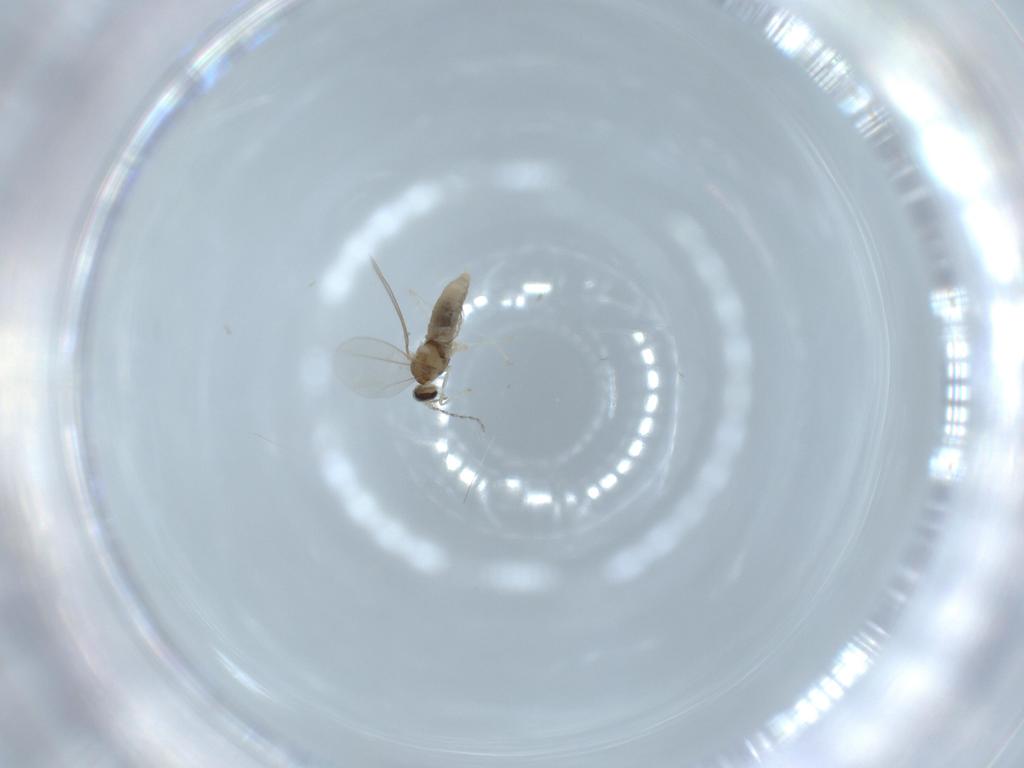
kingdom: Animalia
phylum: Arthropoda
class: Insecta
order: Diptera
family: Cecidomyiidae
